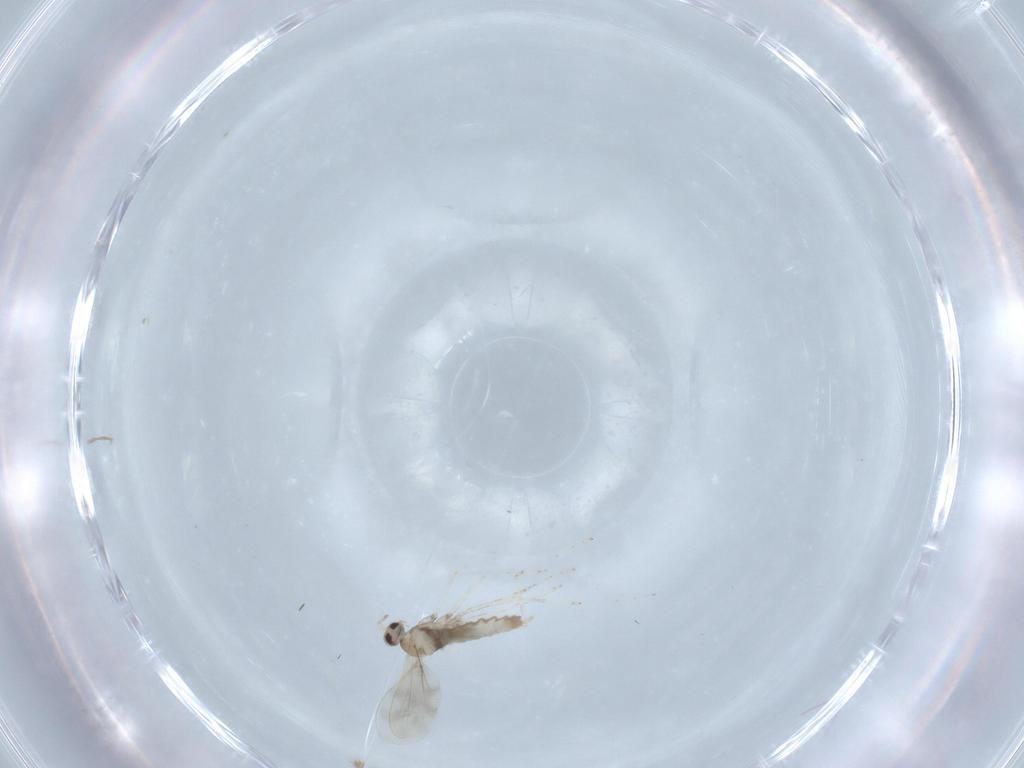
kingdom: Animalia
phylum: Arthropoda
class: Insecta
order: Diptera
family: Cecidomyiidae
